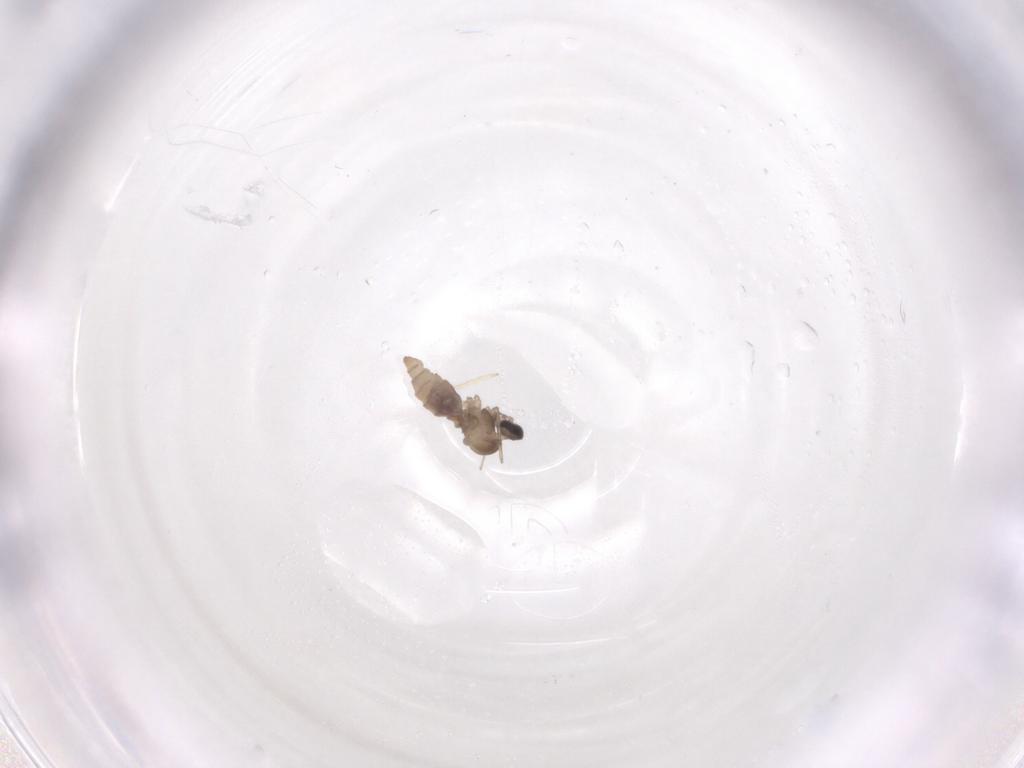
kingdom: Animalia
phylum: Arthropoda
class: Insecta
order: Diptera
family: Cecidomyiidae
